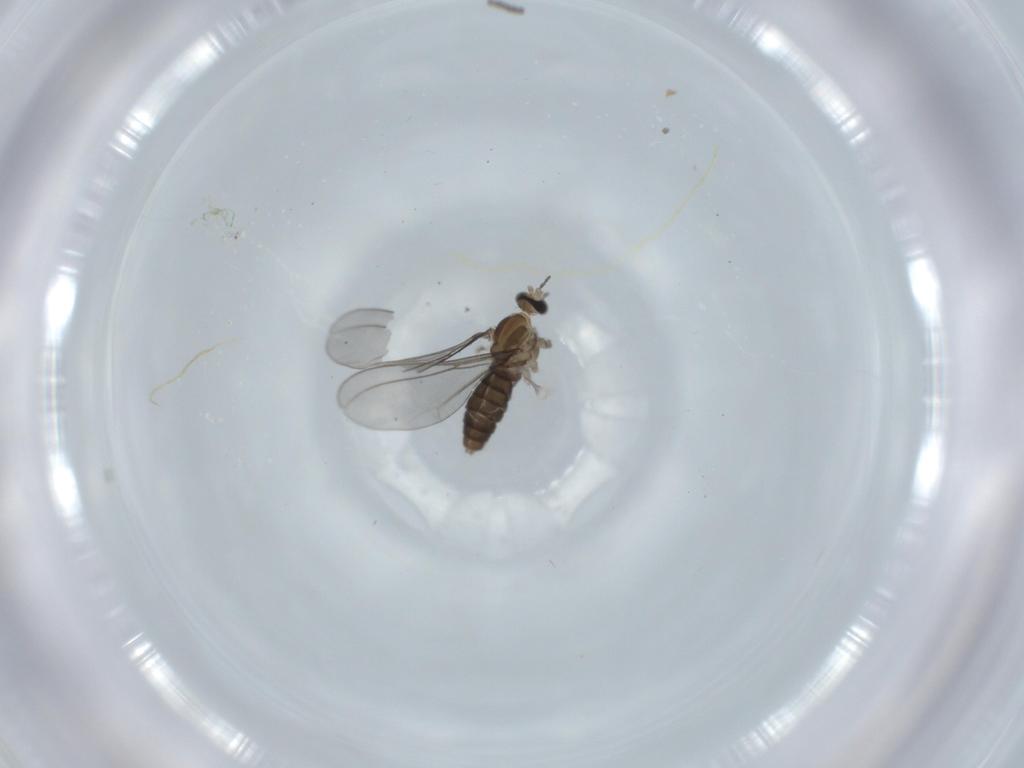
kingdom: Animalia
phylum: Arthropoda
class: Insecta
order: Diptera
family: Cecidomyiidae
